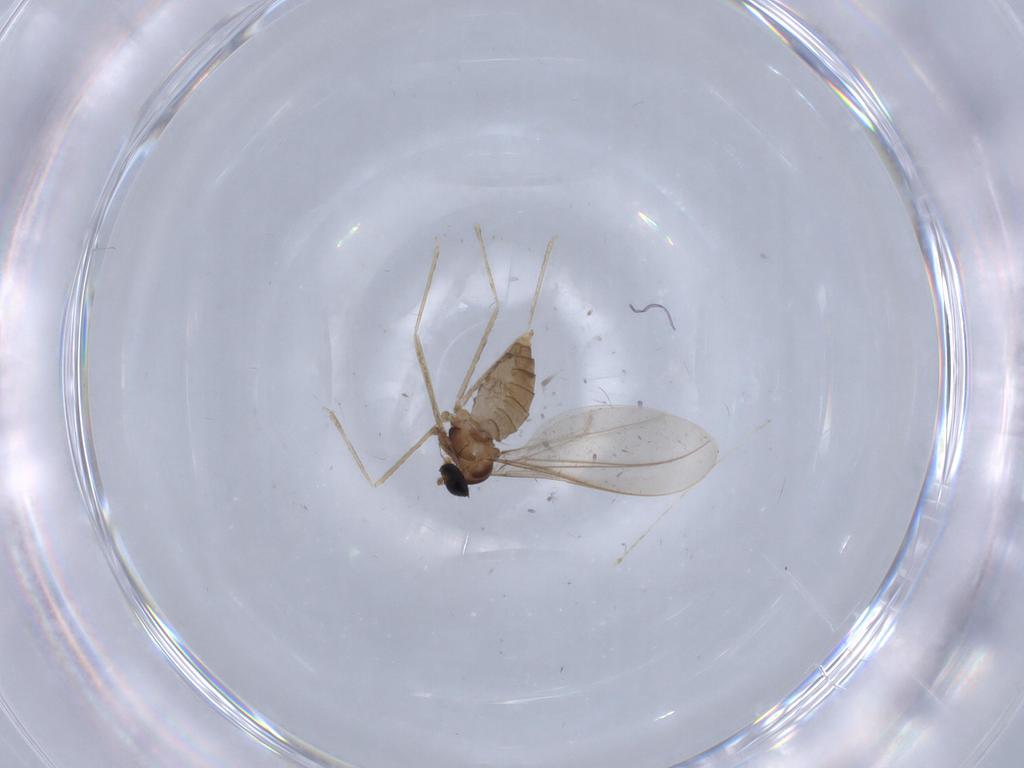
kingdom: Animalia
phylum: Arthropoda
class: Insecta
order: Diptera
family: Cecidomyiidae
